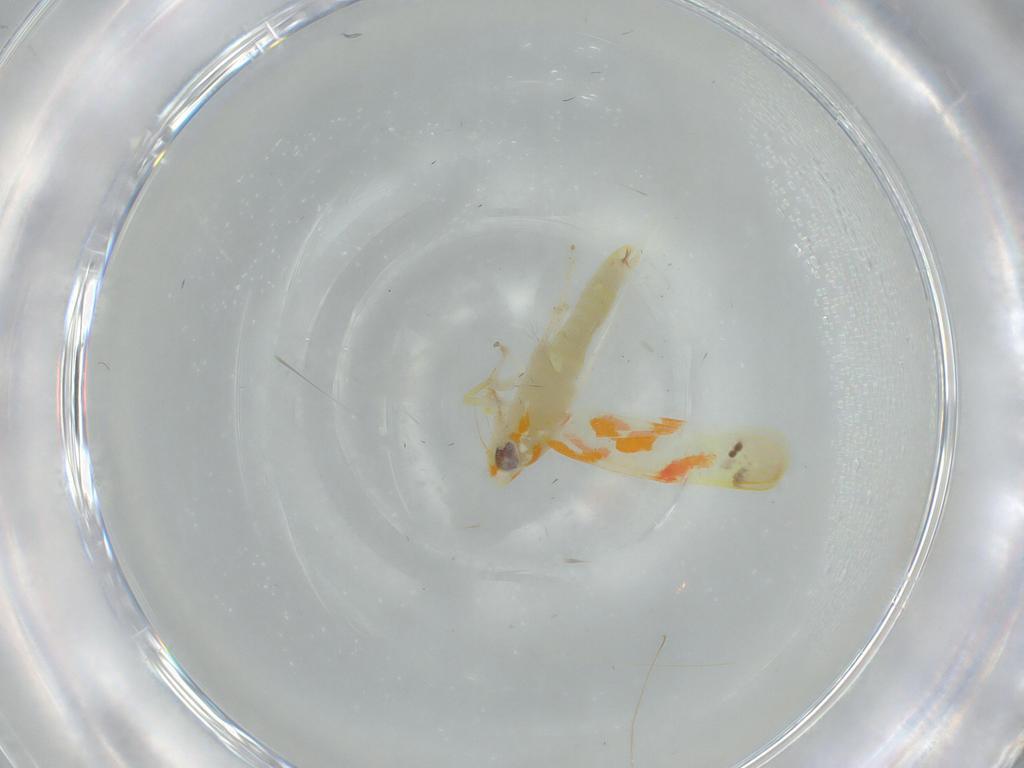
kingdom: Animalia
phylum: Arthropoda
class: Insecta
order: Hemiptera
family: Cicadellidae
